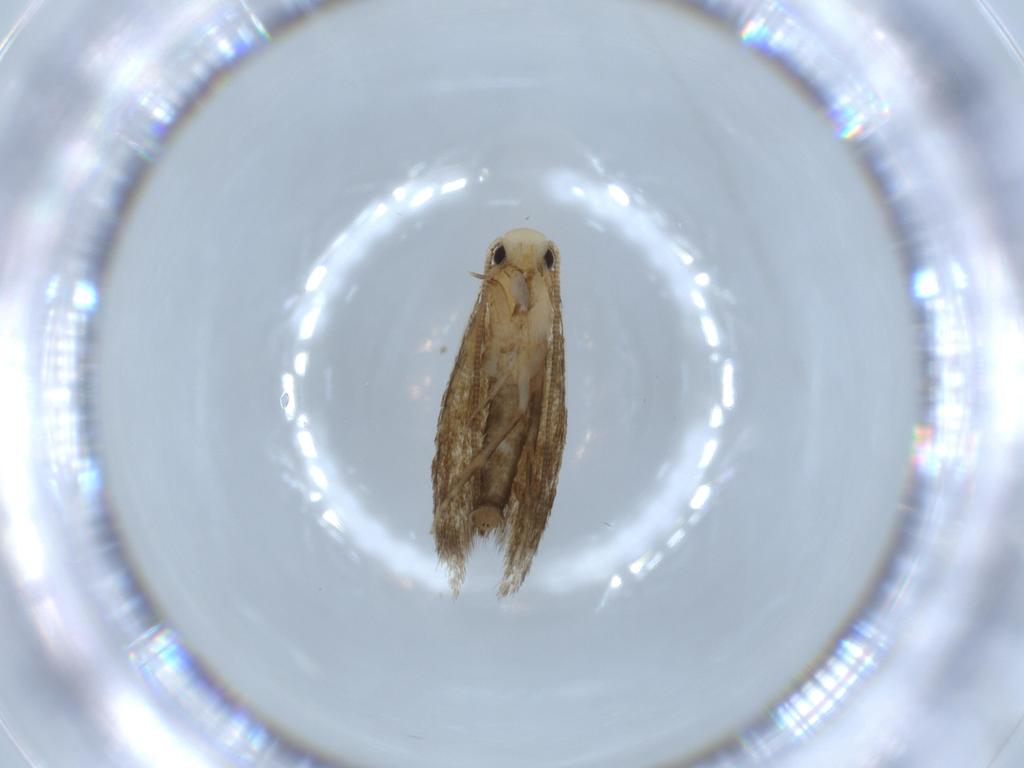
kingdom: Animalia
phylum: Arthropoda
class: Insecta
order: Lepidoptera
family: Tineidae
